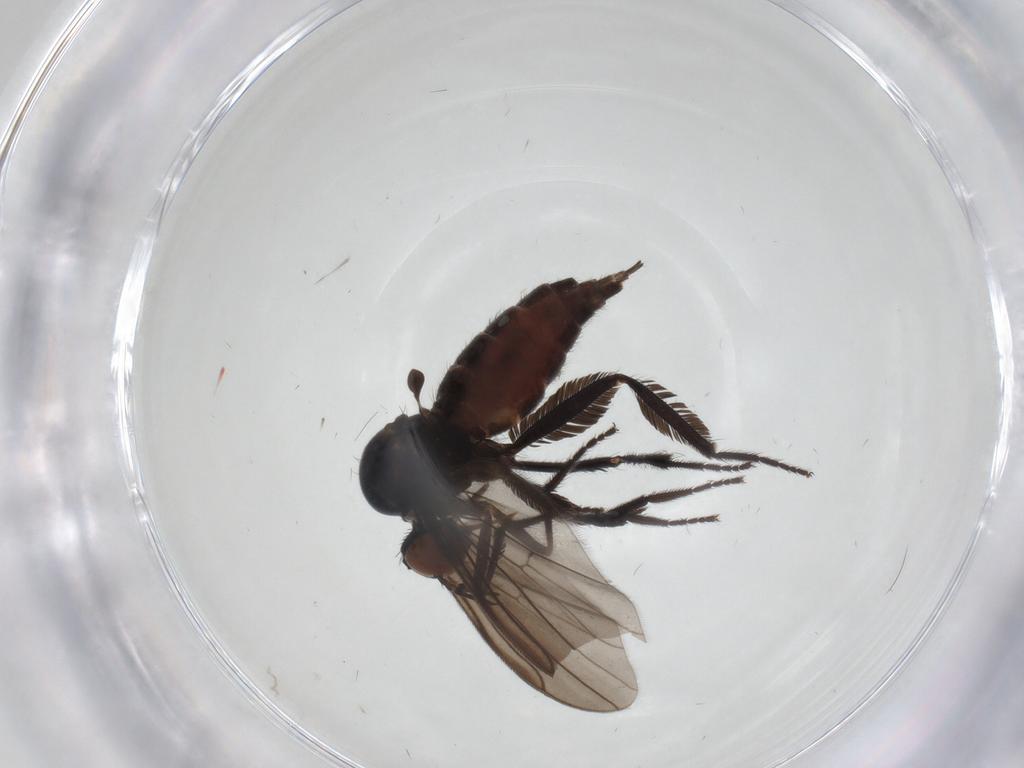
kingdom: Animalia
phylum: Arthropoda
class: Insecta
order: Diptera
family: Empididae
